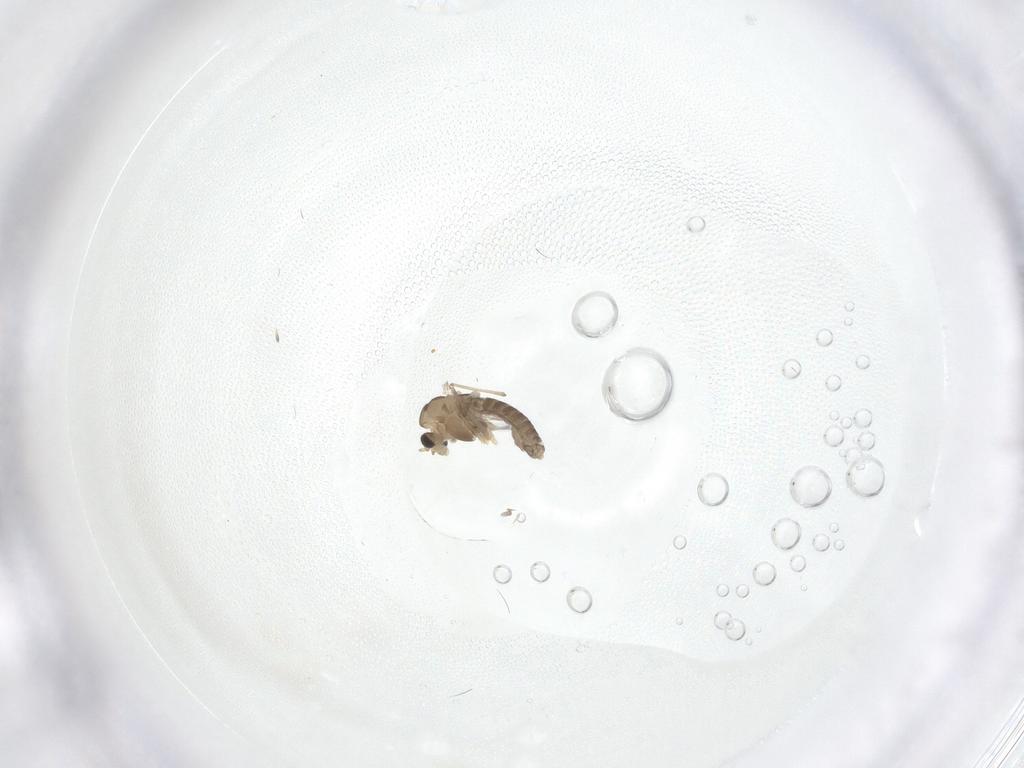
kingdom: Animalia
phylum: Arthropoda
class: Insecta
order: Diptera
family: Chironomidae
